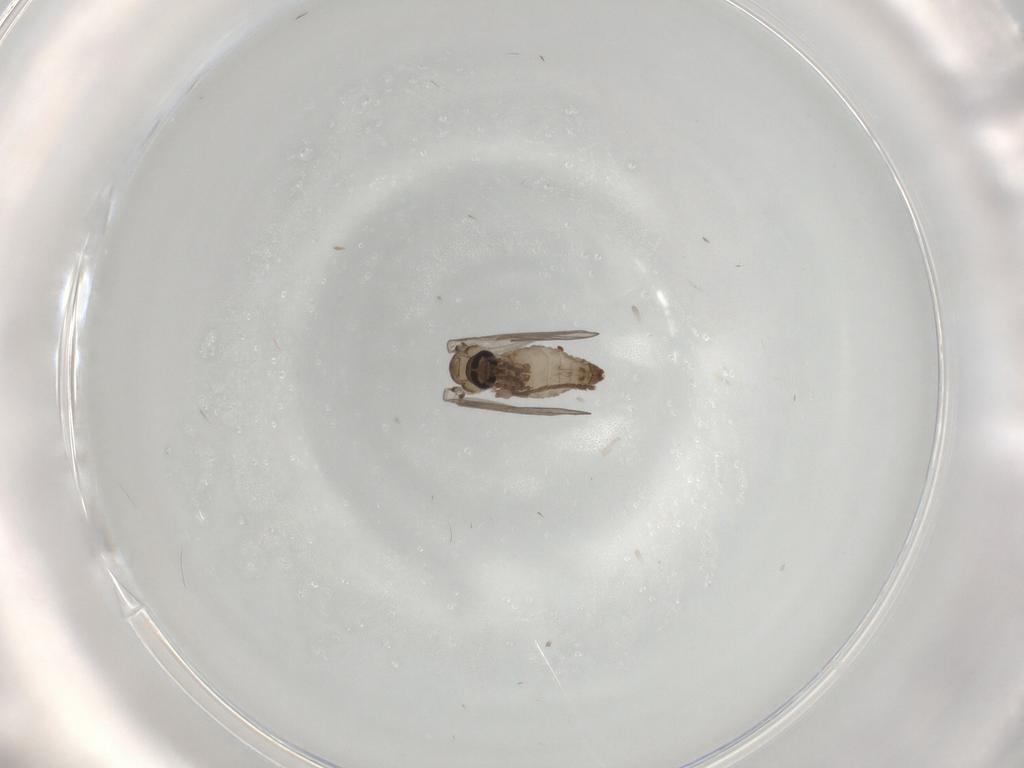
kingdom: Animalia
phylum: Arthropoda
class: Insecta
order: Diptera
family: Psychodidae
